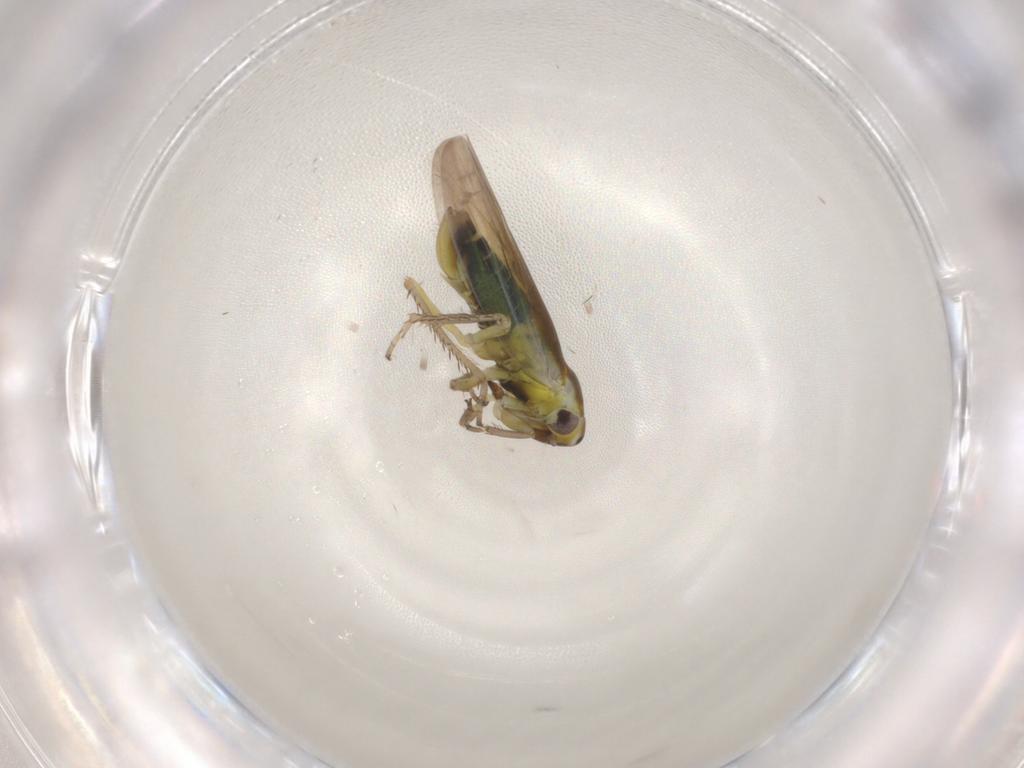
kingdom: Animalia
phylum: Arthropoda
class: Insecta
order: Hemiptera
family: Cicadellidae
